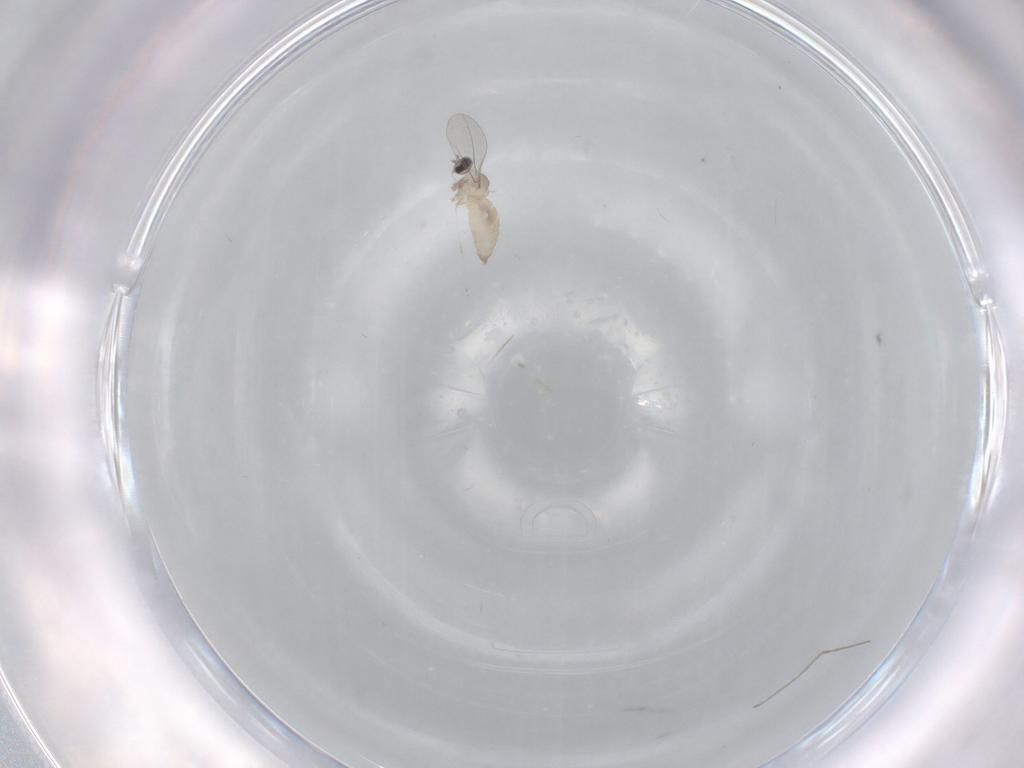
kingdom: Animalia
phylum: Arthropoda
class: Insecta
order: Diptera
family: Cecidomyiidae
